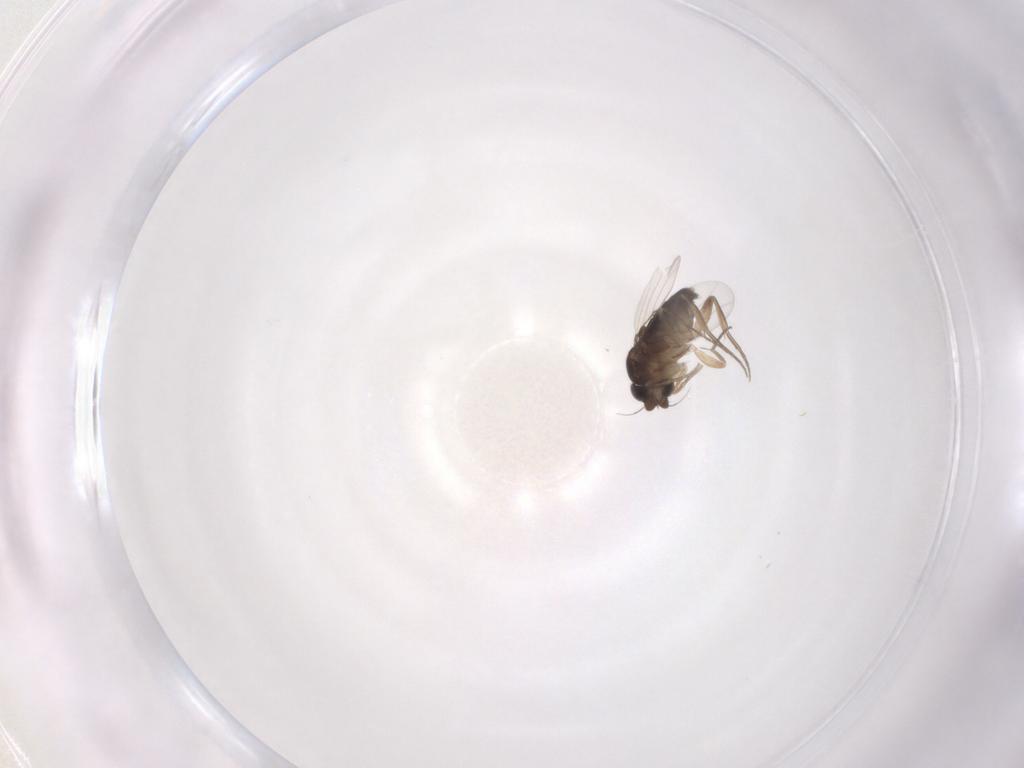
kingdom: Animalia
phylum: Arthropoda
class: Insecta
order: Diptera
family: Phoridae
